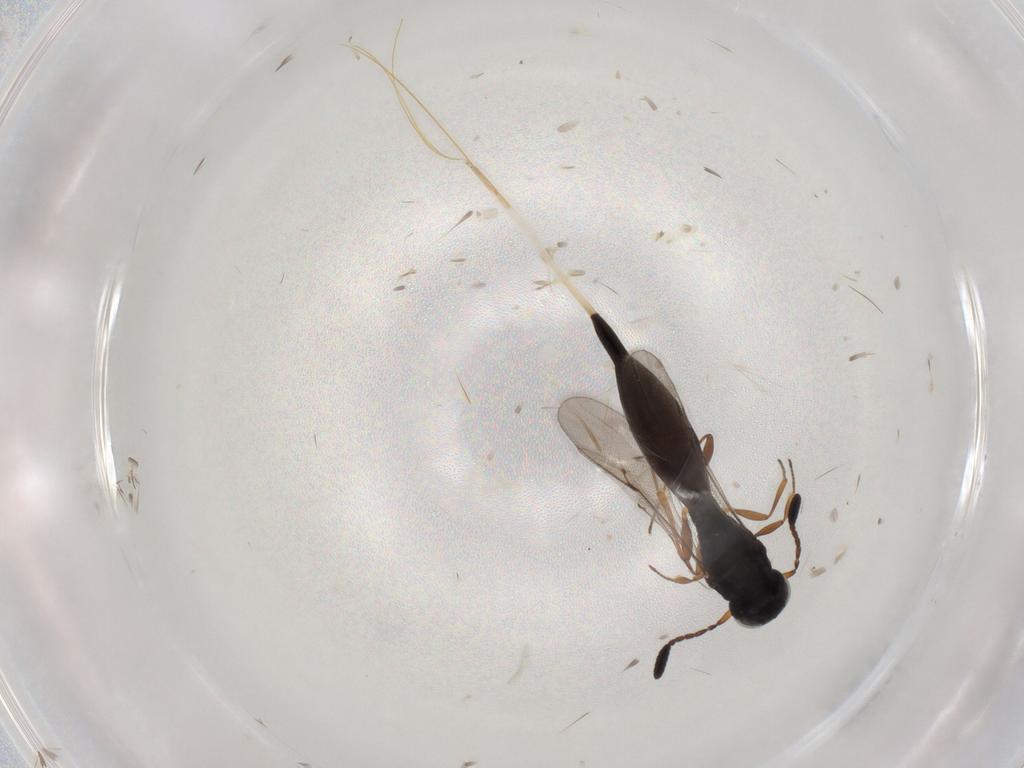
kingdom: Animalia
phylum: Arthropoda
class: Insecta
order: Hymenoptera
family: Scelionidae
